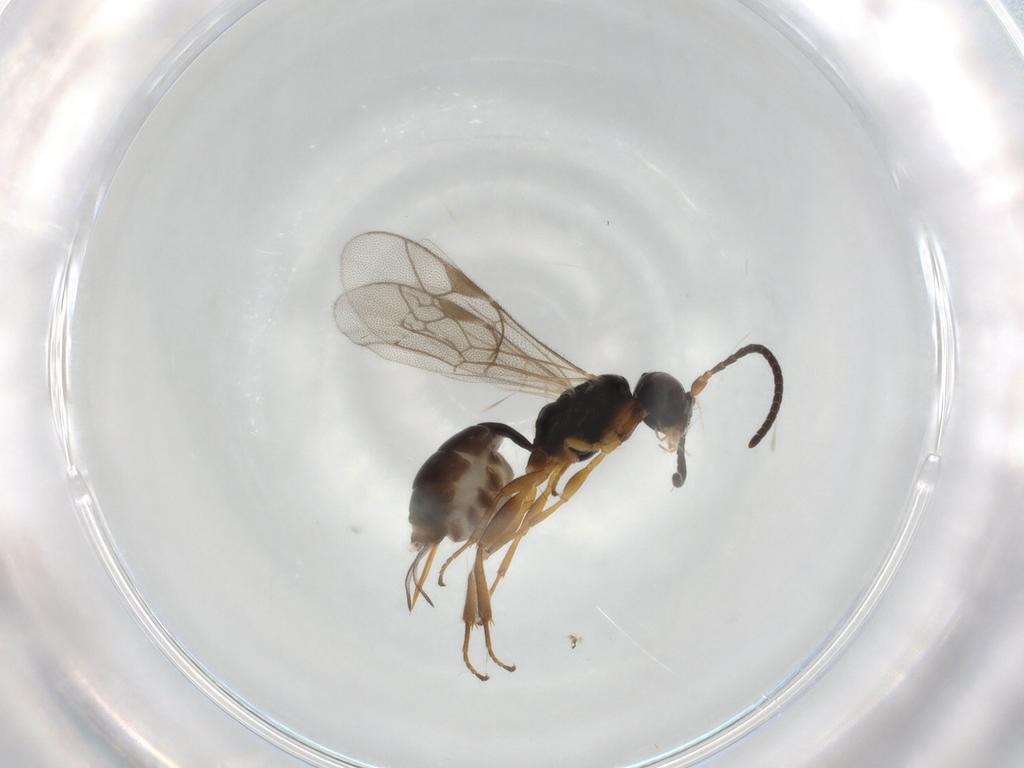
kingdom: Animalia
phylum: Arthropoda
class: Insecta
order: Hymenoptera
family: Ichneumonidae
